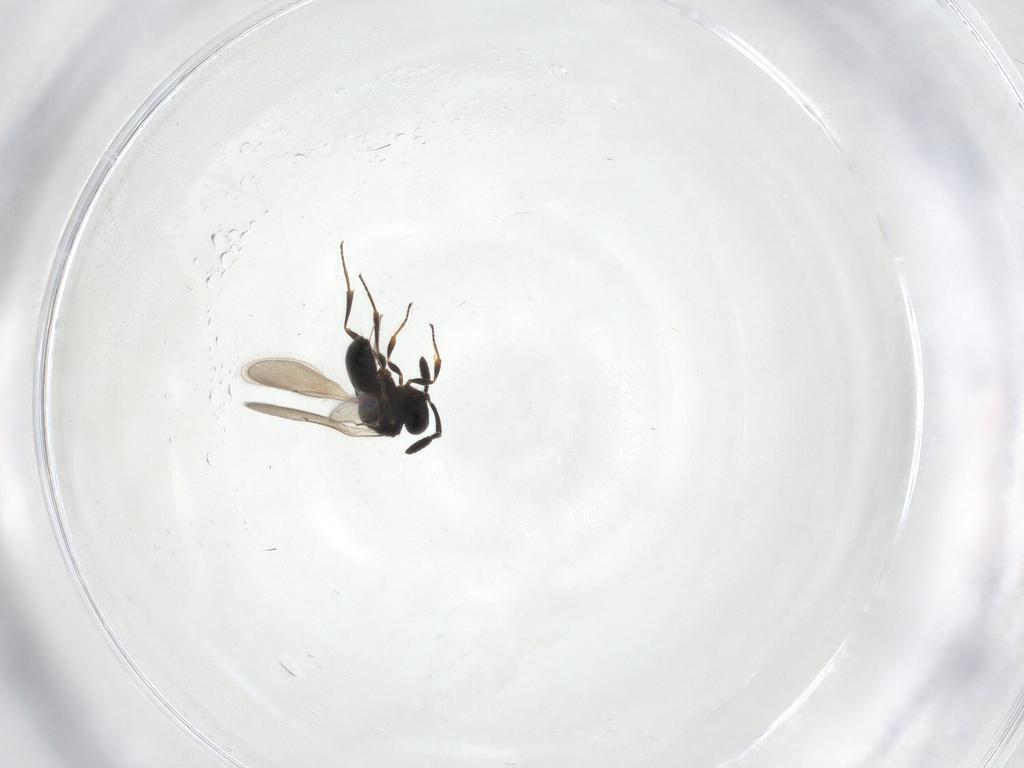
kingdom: Animalia
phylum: Arthropoda
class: Insecta
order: Hymenoptera
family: Scelionidae
